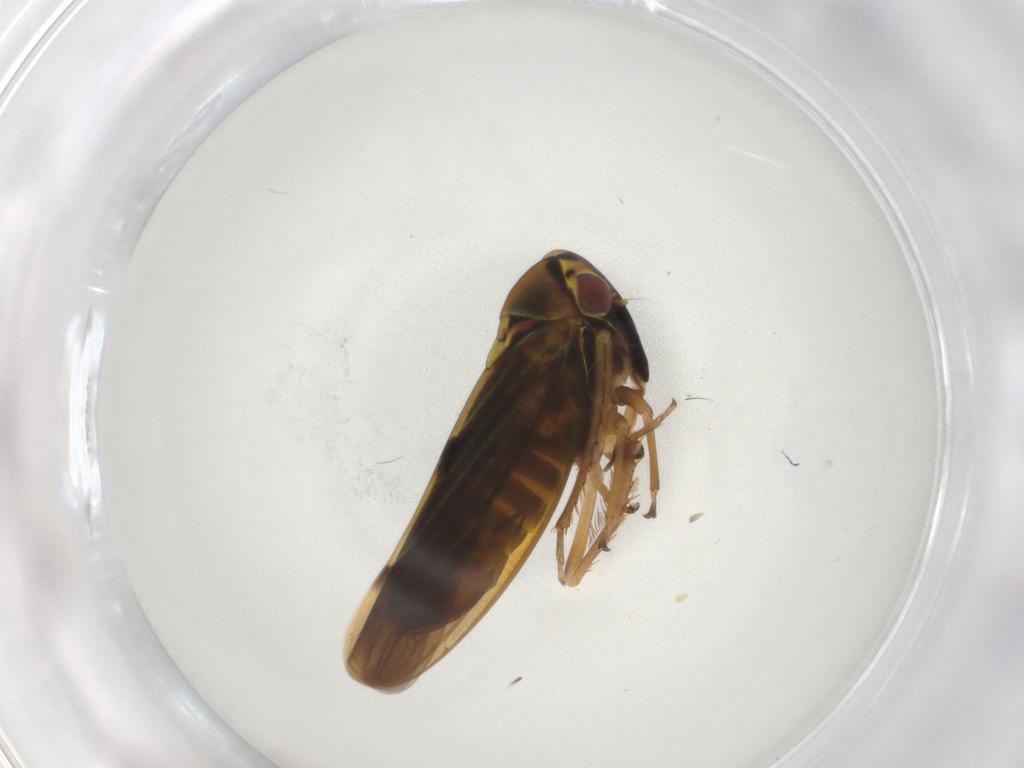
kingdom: Animalia
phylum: Arthropoda
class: Insecta
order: Hemiptera
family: Cicadellidae
